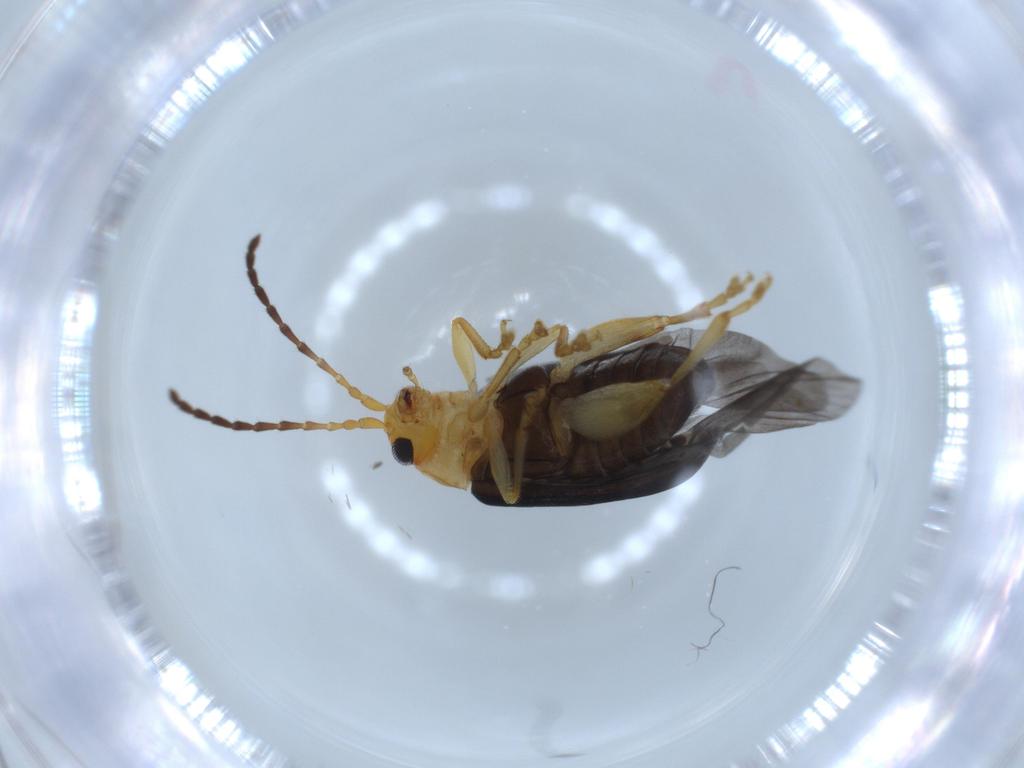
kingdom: Animalia
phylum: Arthropoda
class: Insecta
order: Coleoptera
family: Chrysomelidae
